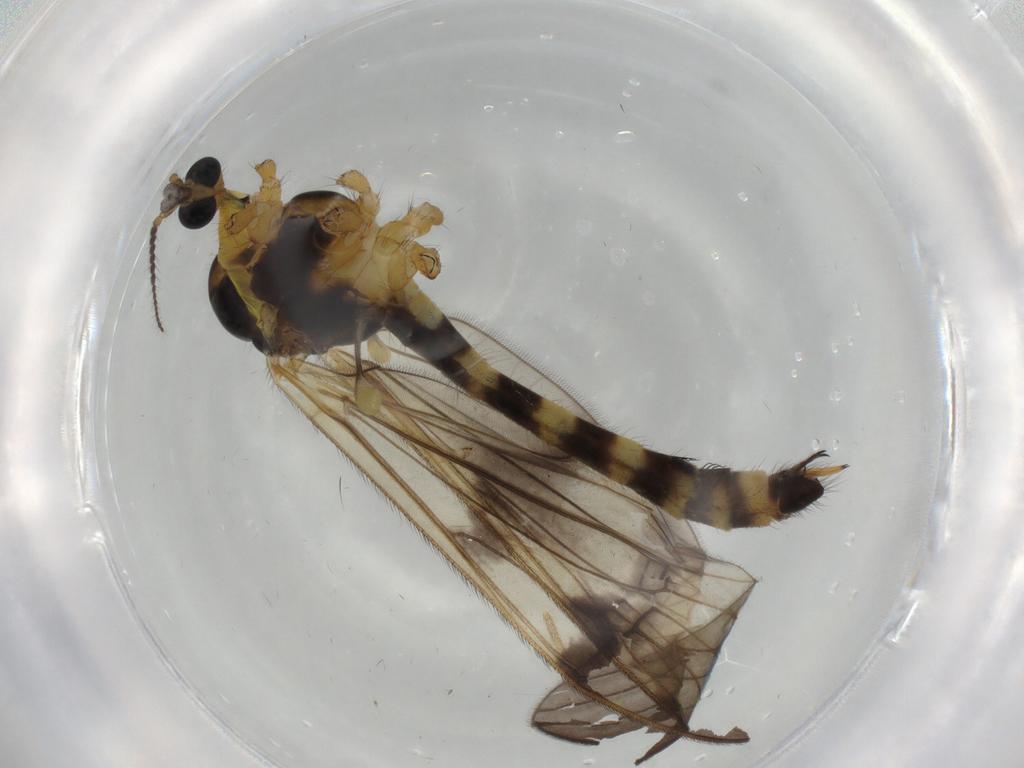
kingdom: Animalia
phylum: Arthropoda
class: Insecta
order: Diptera
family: Limoniidae
